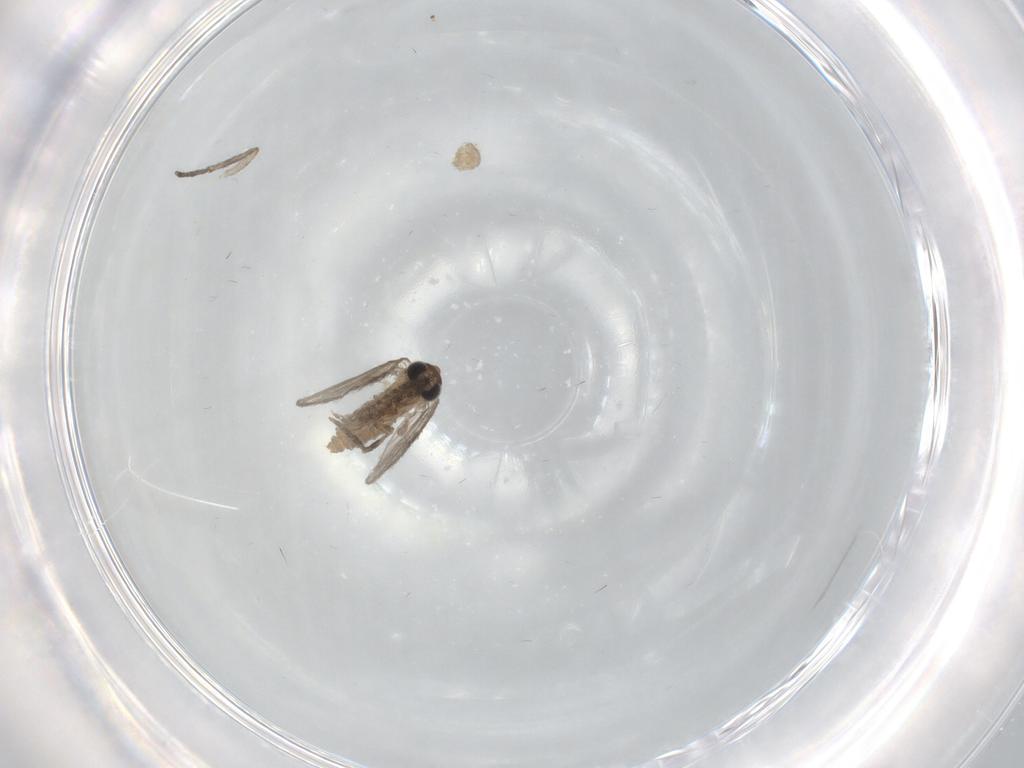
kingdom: Animalia
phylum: Arthropoda
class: Insecta
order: Diptera
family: Psychodidae
